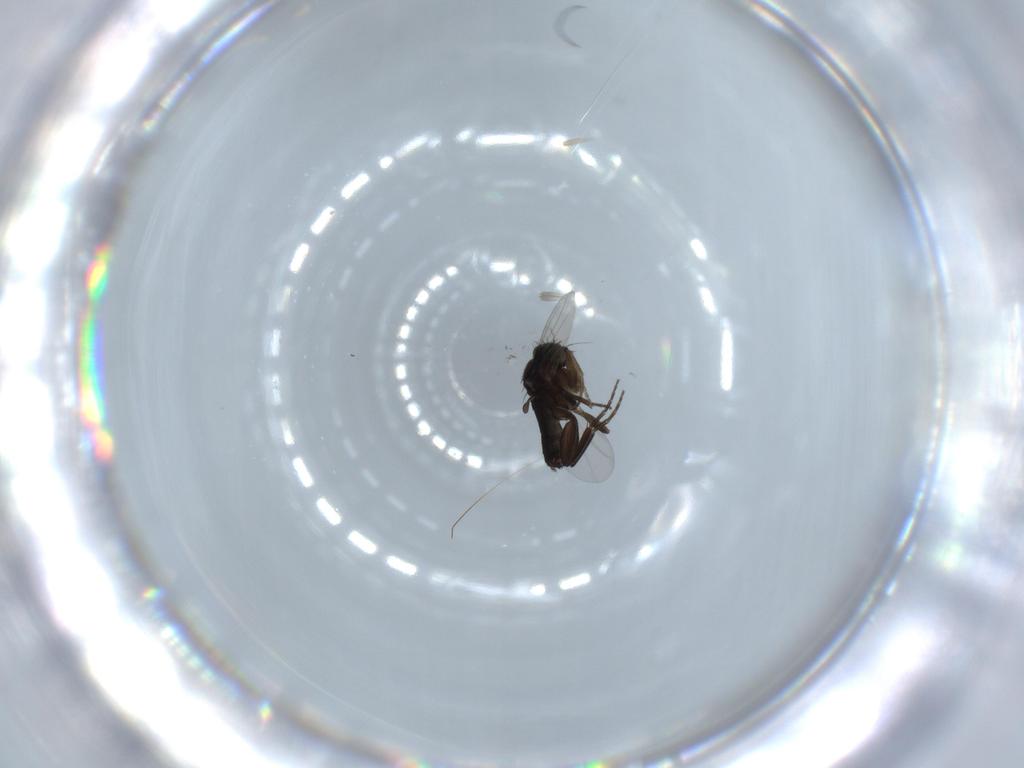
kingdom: Animalia
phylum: Arthropoda
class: Insecta
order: Diptera
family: Phoridae
